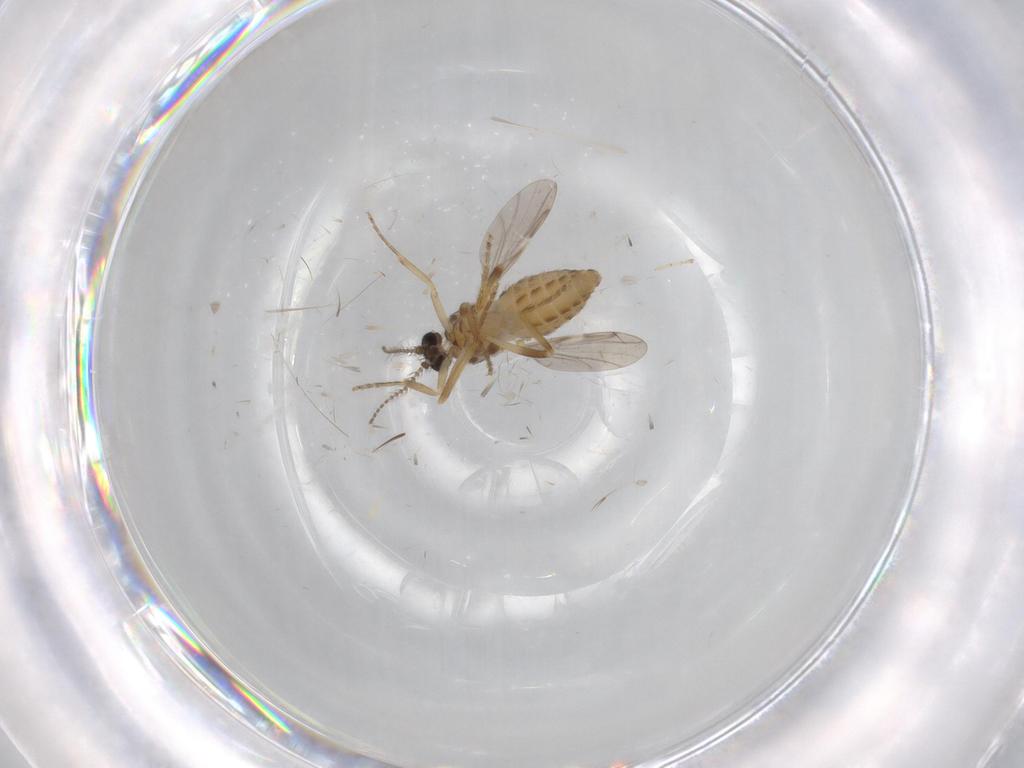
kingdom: Animalia
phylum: Arthropoda
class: Insecta
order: Diptera
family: Ceratopogonidae
